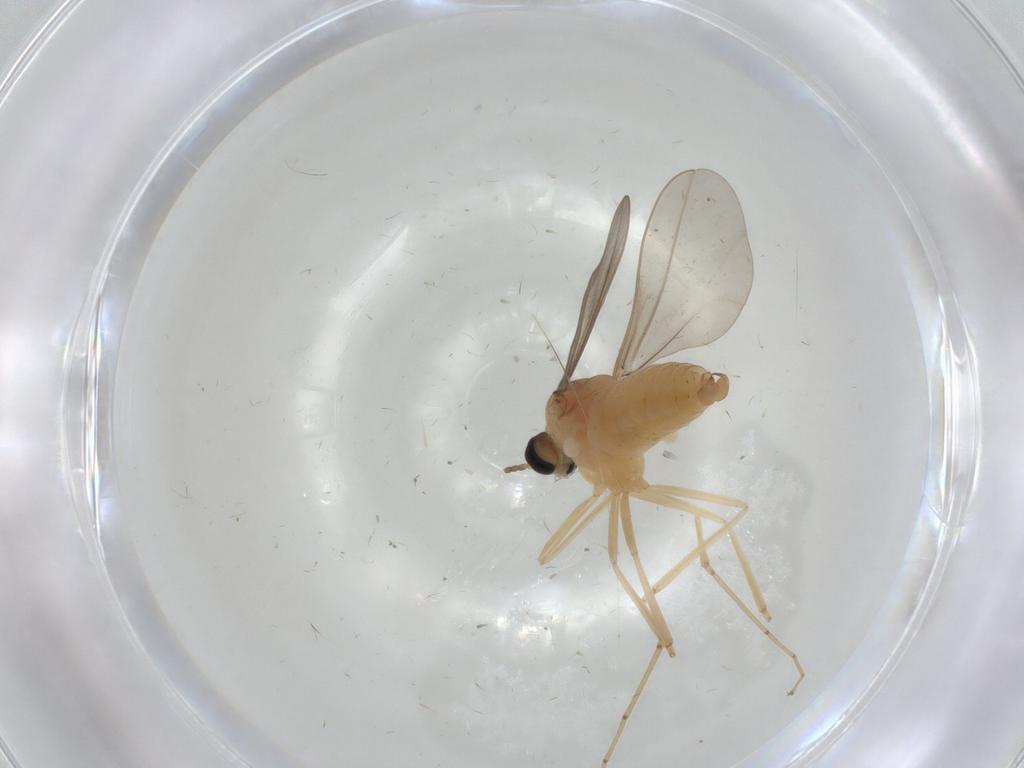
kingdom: Animalia
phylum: Arthropoda
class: Insecta
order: Diptera
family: Cecidomyiidae
